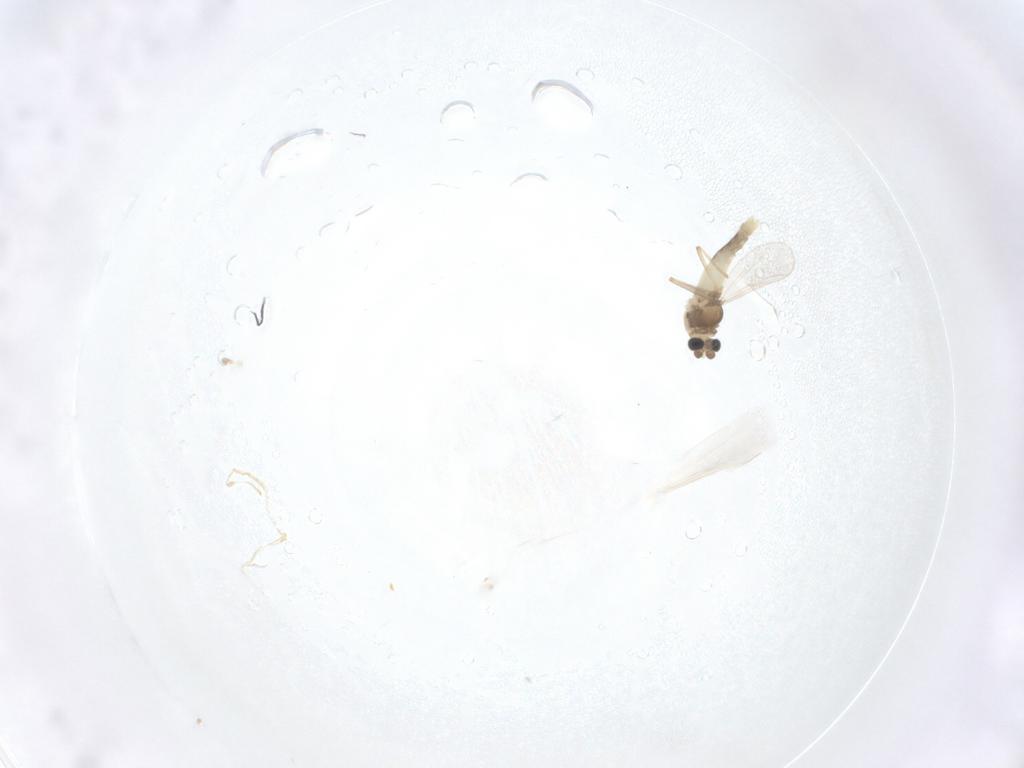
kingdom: Animalia
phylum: Arthropoda
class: Insecta
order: Diptera
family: Chironomidae
